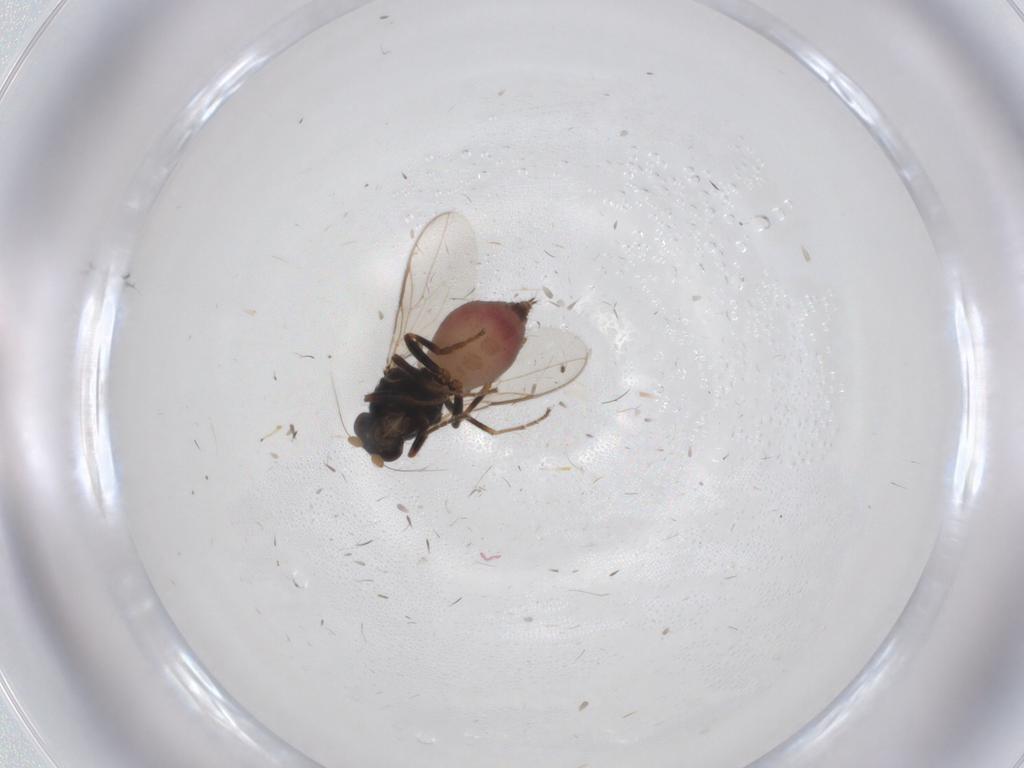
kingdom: Animalia
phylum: Arthropoda
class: Insecta
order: Diptera
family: Sphaeroceridae
